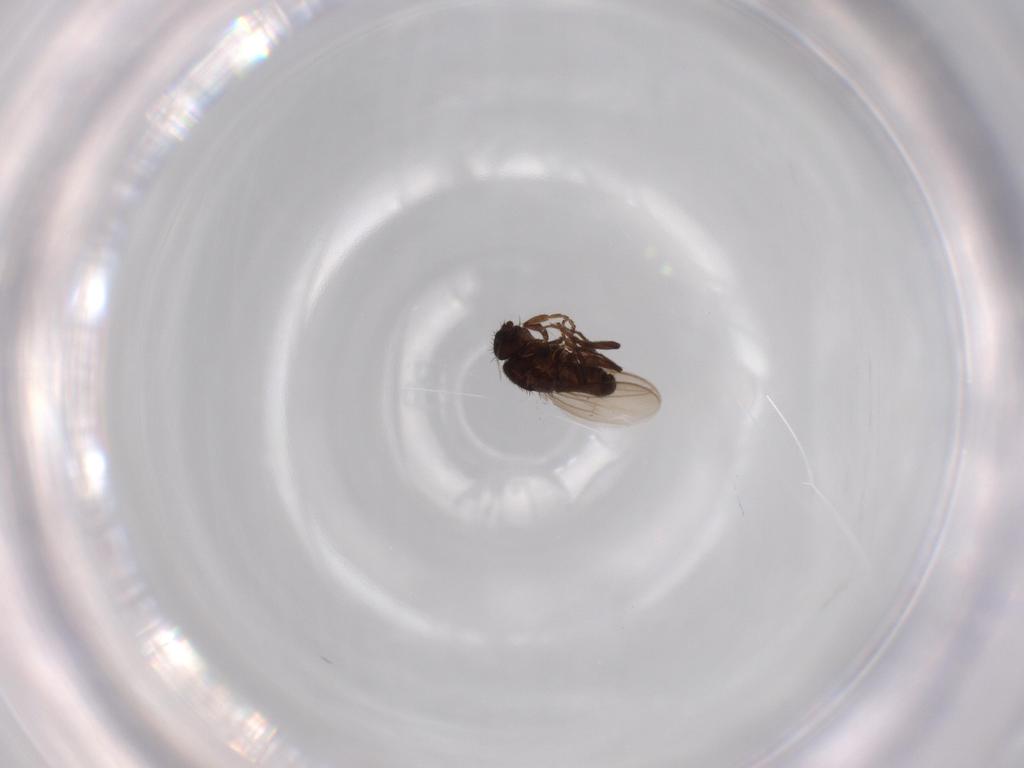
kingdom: Animalia
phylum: Arthropoda
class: Insecta
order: Diptera
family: Sphaeroceridae
